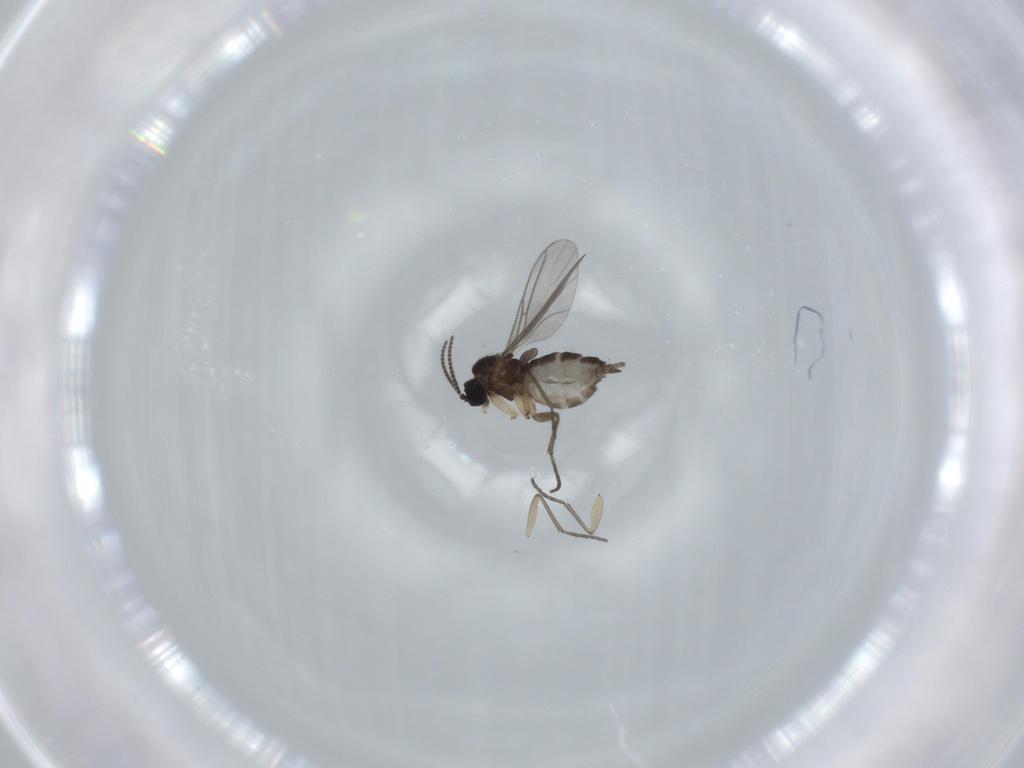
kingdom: Animalia
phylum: Arthropoda
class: Insecta
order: Diptera
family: Sciaridae
